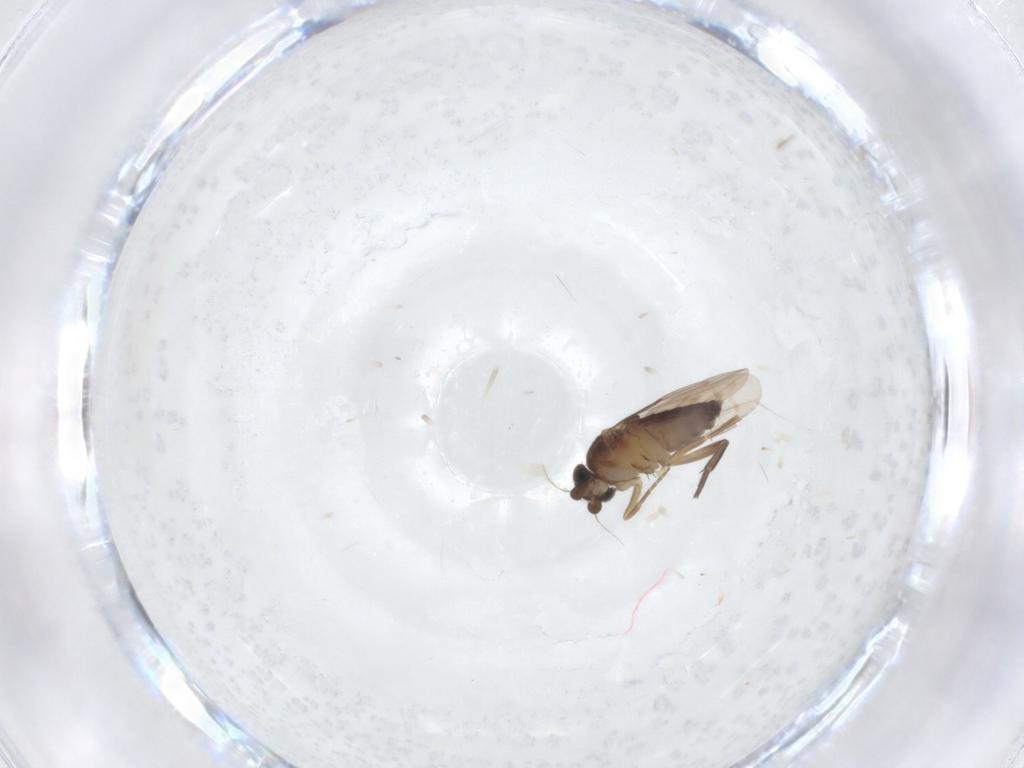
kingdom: Animalia
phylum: Arthropoda
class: Insecta
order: Diptera
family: Phoridae
